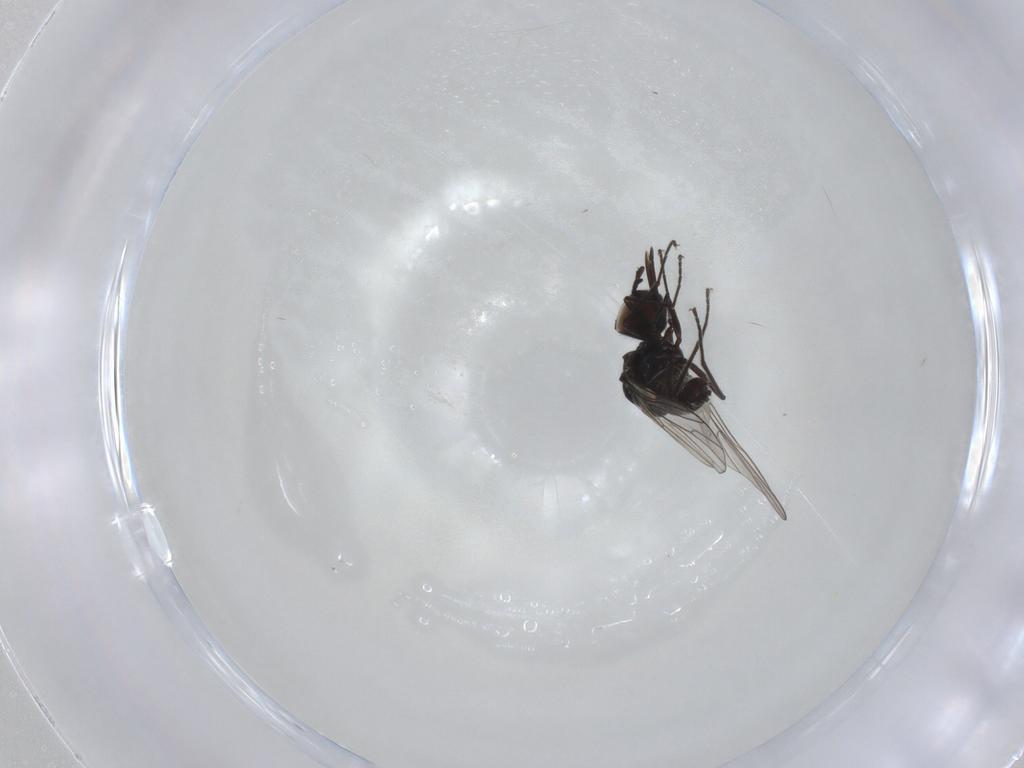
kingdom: Animalia
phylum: Arthropoda
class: Insecta
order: Diptera
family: Bombyliidae
